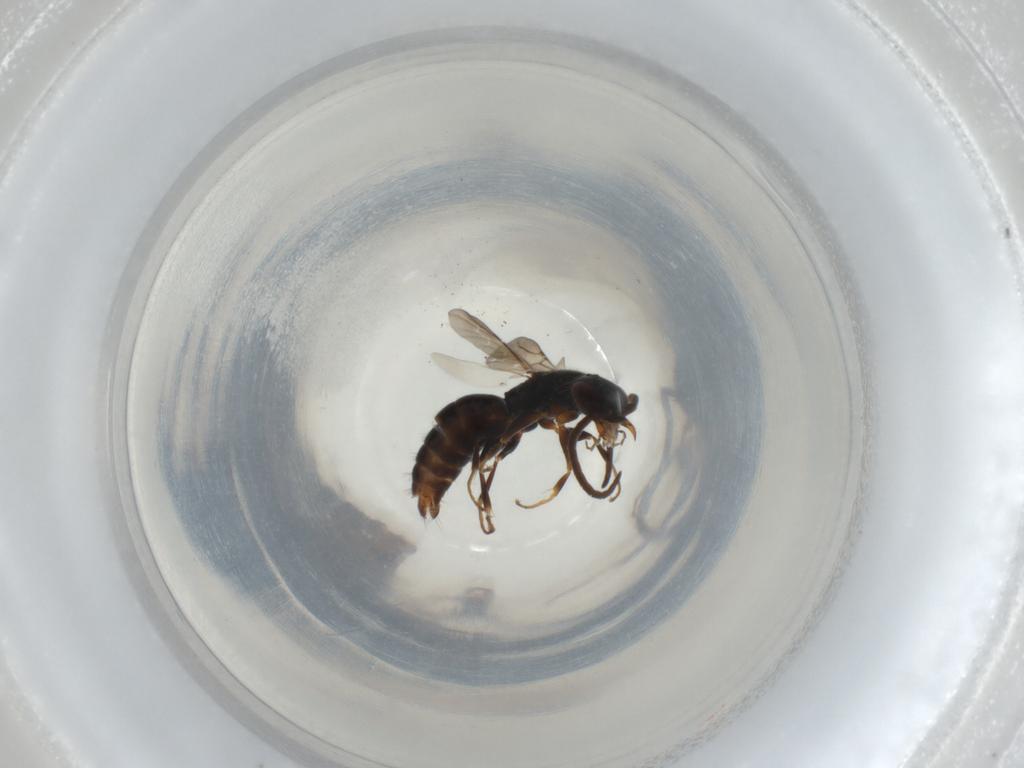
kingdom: Animalia
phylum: Arthropoda
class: Insecta
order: Hymenoptera
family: Bethylidae
